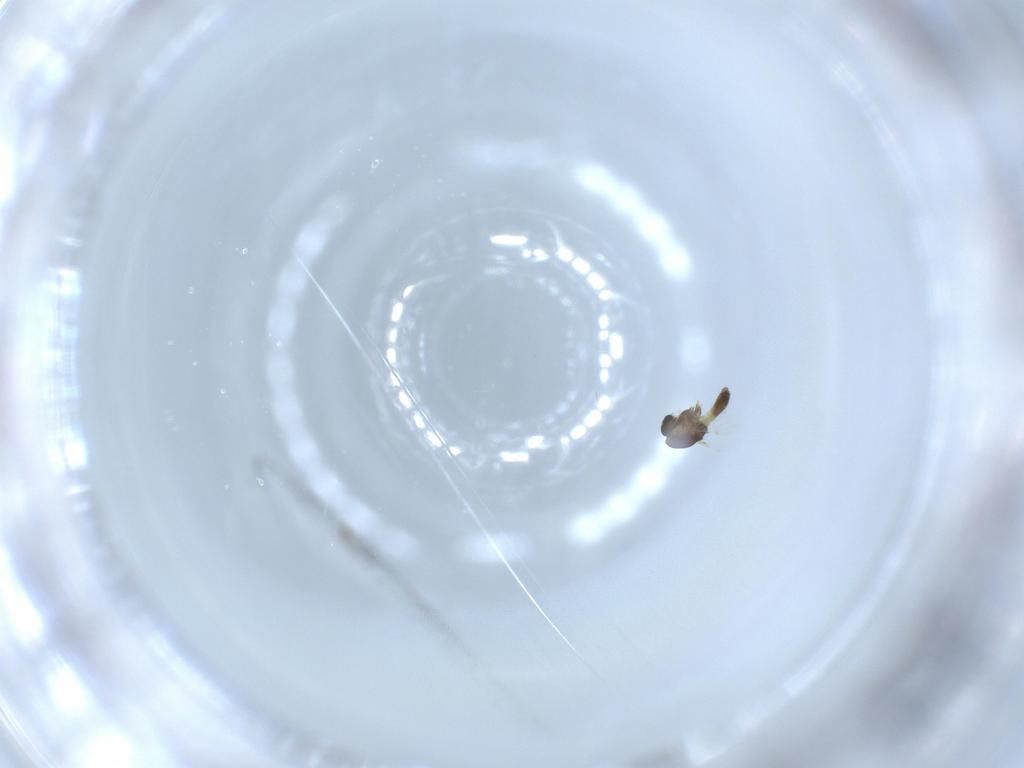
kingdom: Animalia
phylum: Arthropoda
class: Insecta
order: Diptera
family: Chironomidae
